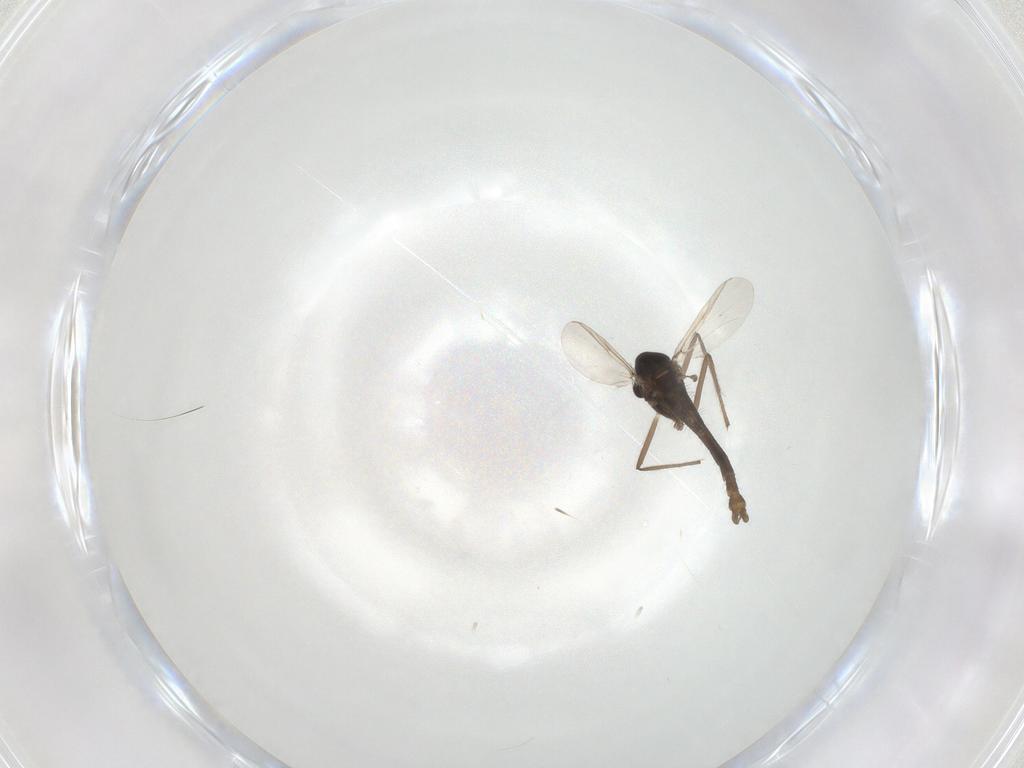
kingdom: Animalia
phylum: Arthropoda
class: Insecta
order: Diptera
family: Chironomidae
